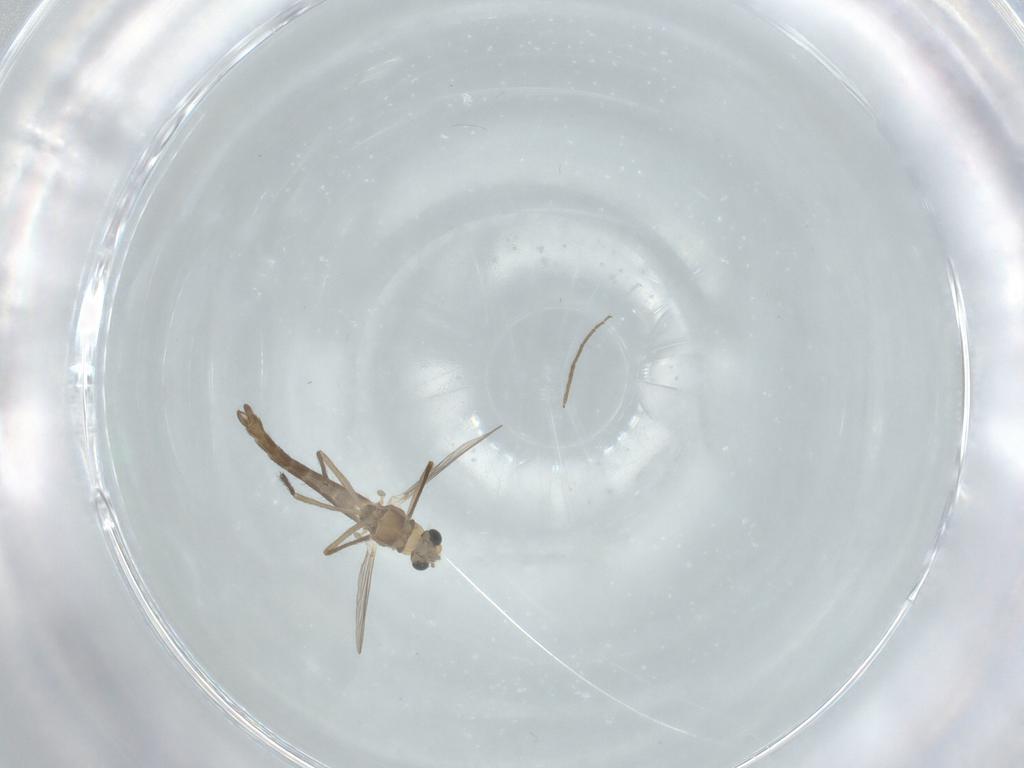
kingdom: Animalia
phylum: Arthropoda
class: Insecta
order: Diptera
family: Chironomidae
